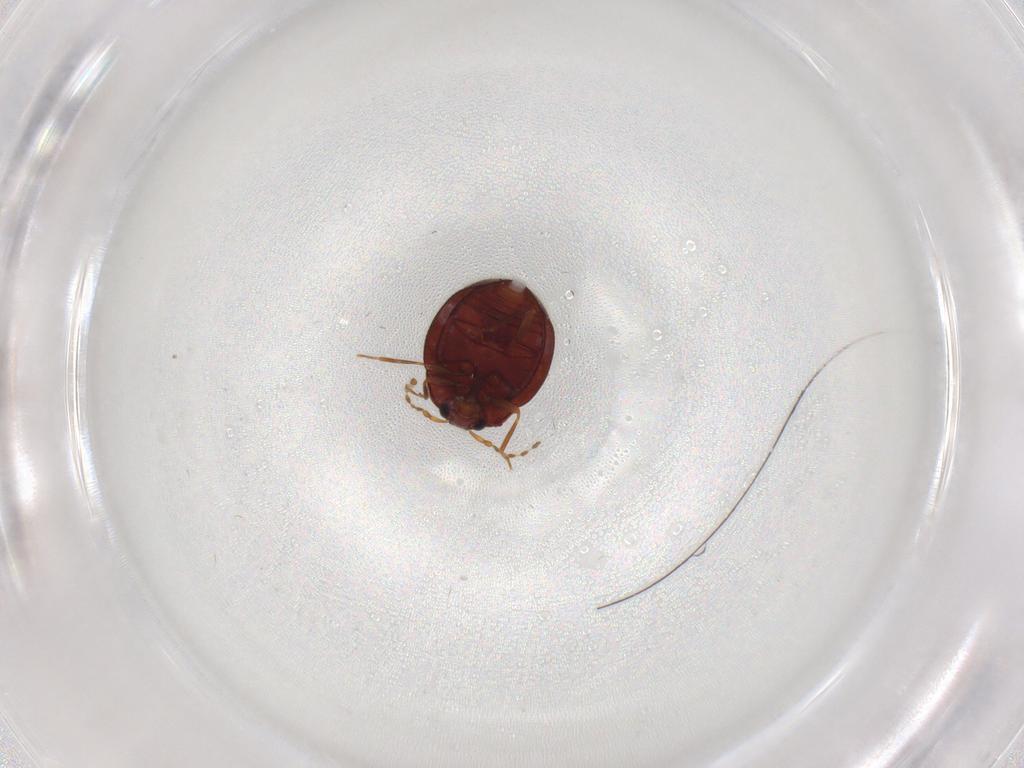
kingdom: Animalia
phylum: Arthropoda
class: Insecta
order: Coleoptera
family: Anamorphidae
